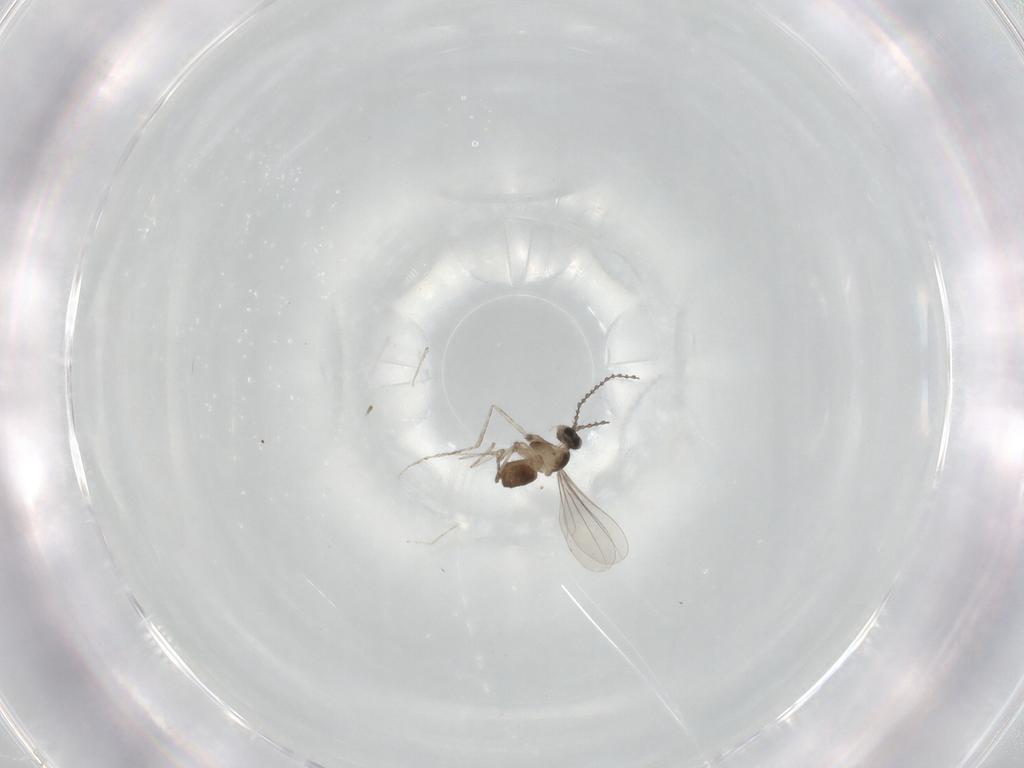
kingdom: Animalia
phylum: Arthropoda
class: Insecta
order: Diptera
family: Cecidomyiidae
